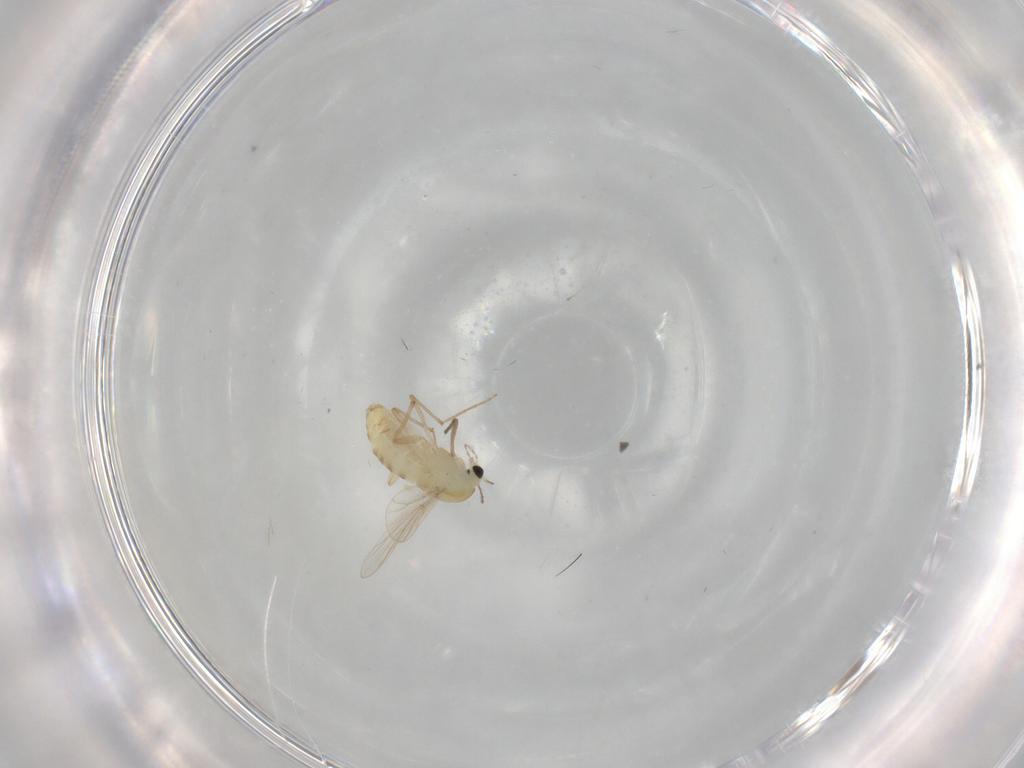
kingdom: Animalia
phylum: Arthropoda
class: Insecta
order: Diptera
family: Chironomidae
